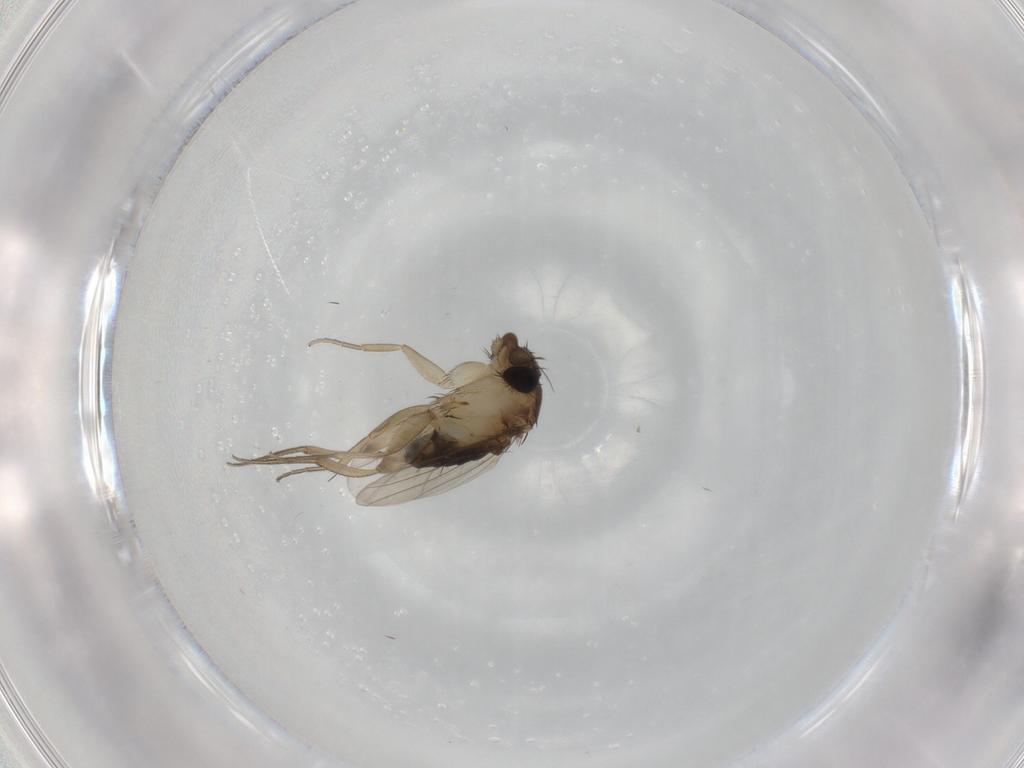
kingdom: Animalia
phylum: Arthropoda
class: Insecta
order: Diptera
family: Phoridae
